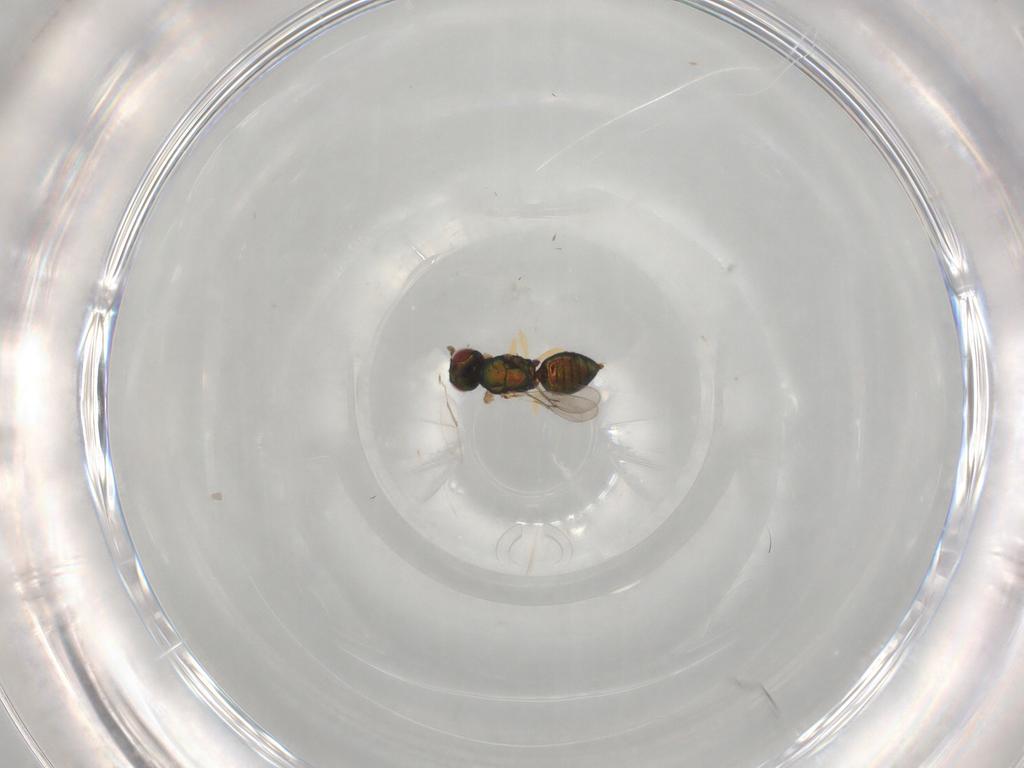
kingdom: Animalia
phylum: Arthropoda
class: Insecta
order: Hymenoptera
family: Eulophidae
